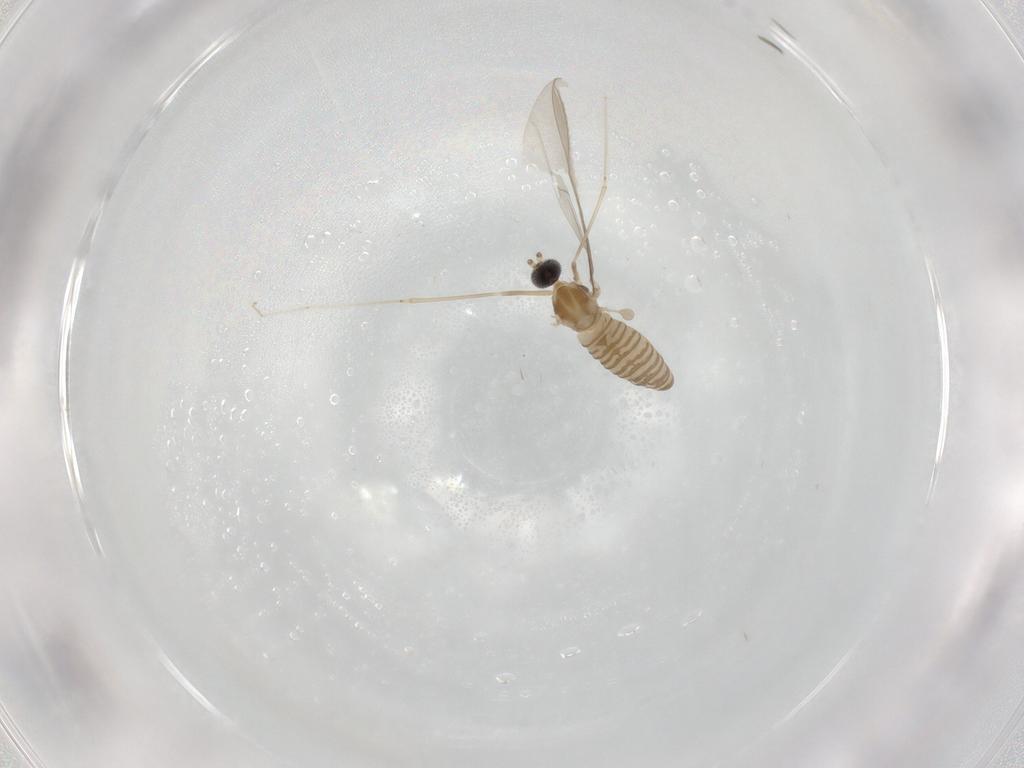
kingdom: Animalia
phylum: Arthropoda
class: Insecta
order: Diptera
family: Cecidomyiidae
